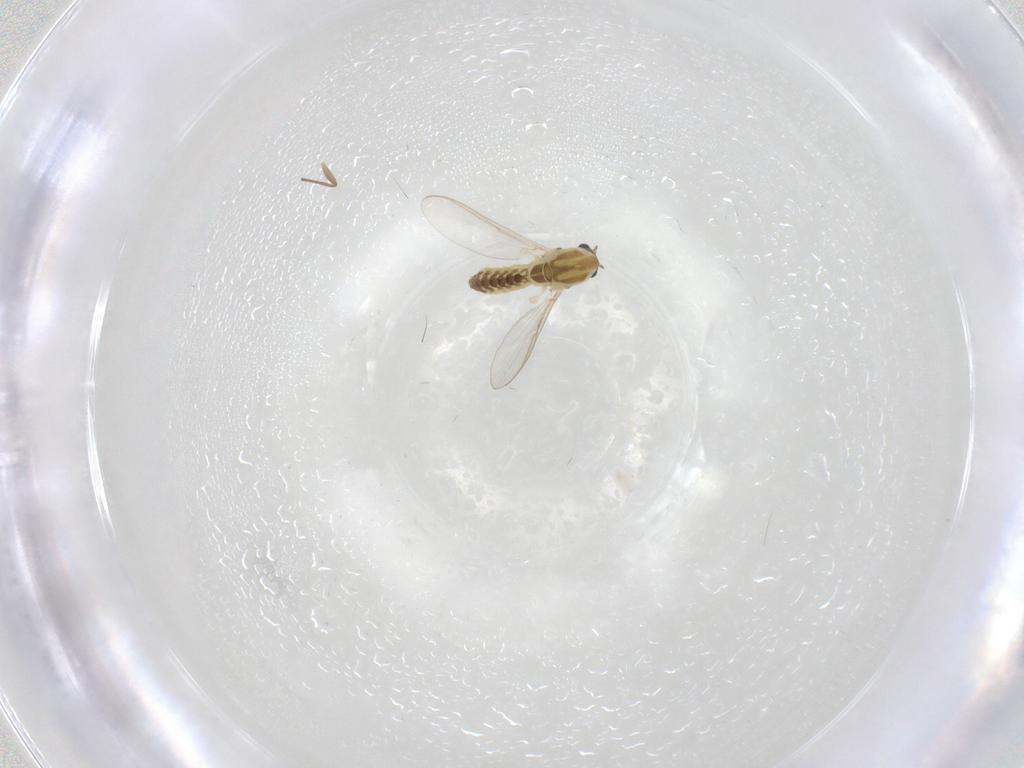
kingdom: Animalia
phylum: Arthropoda
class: Insecta
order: Diptera
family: Chironomidae
